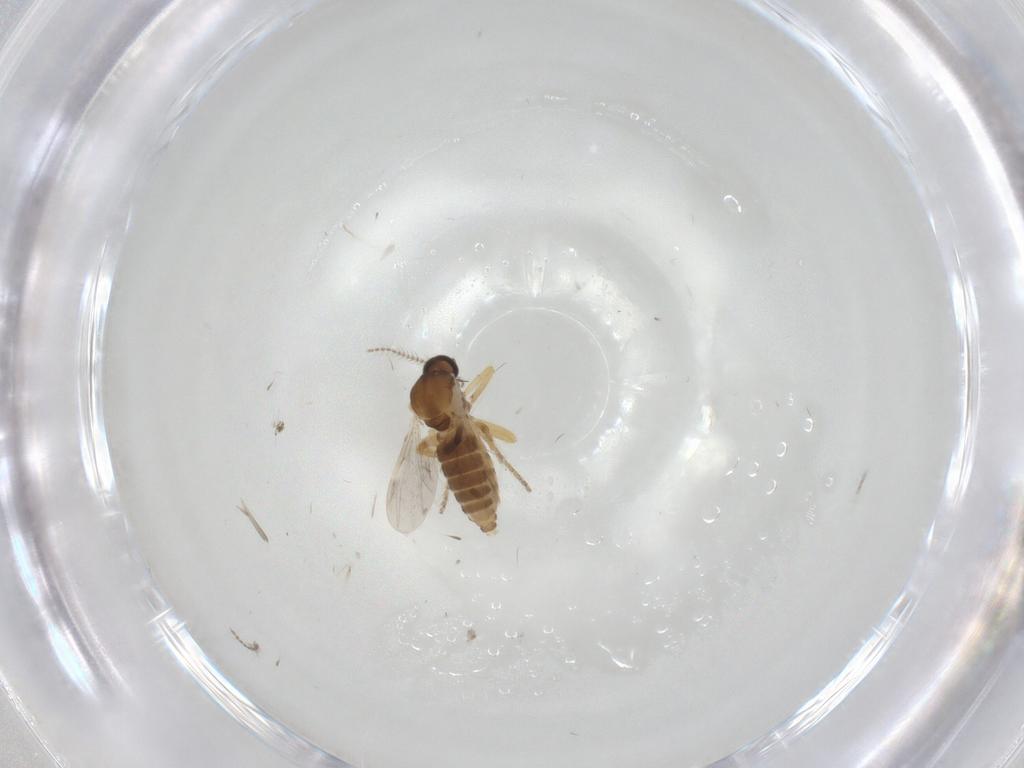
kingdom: Animalia
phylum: Arthropoda
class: Insecta
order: Diptera
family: Ceratopogonidae
